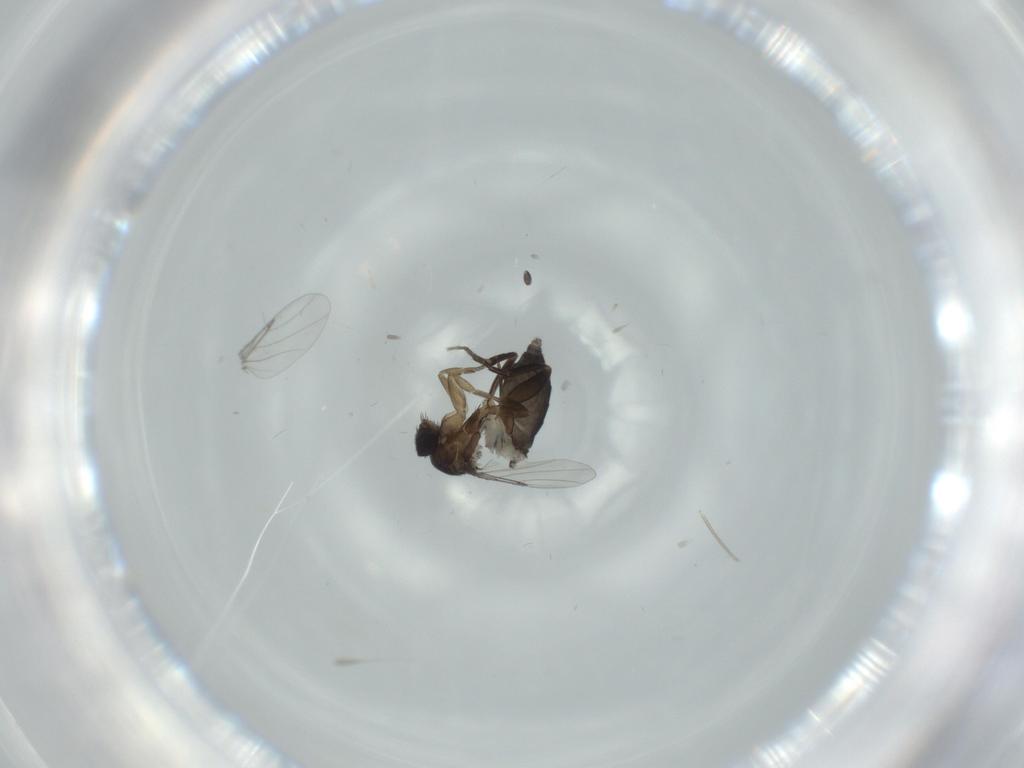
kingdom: Animalia
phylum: Arthropoda
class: Insecta
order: Diptera
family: Phoridae
